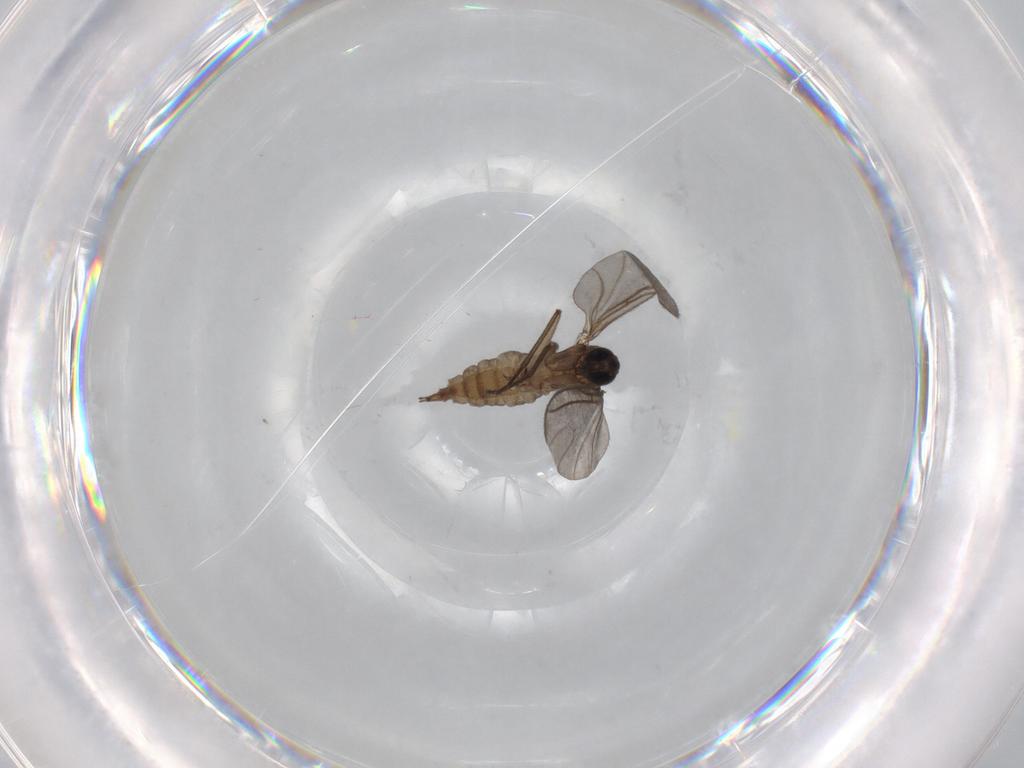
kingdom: Animalia
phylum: Arthropoda
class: Insecta
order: Diptera
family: Sciaridae
